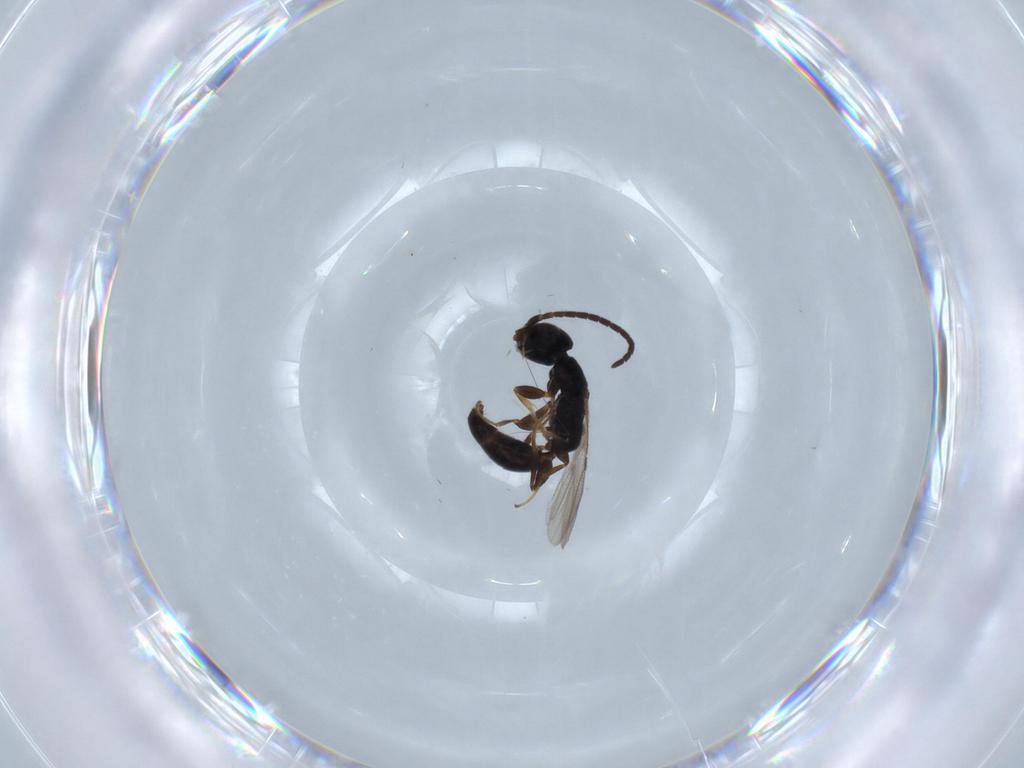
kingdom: Animalia
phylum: Arthropoda
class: Insecta
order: Hymenoptera
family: Bethylidae
